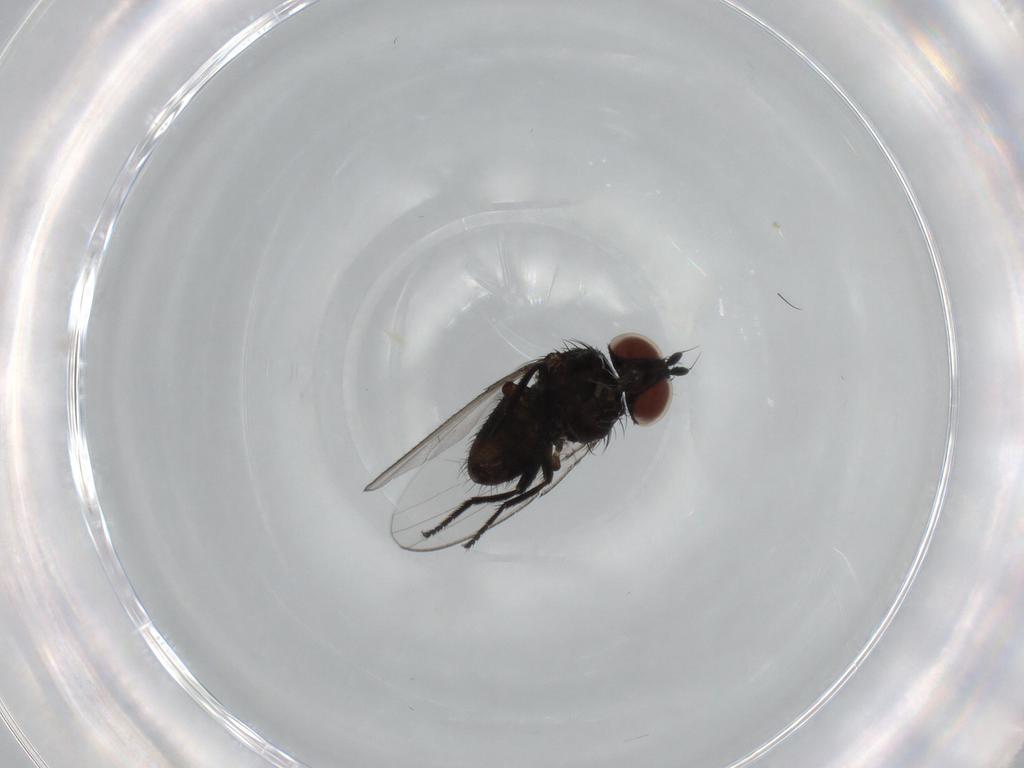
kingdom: Animalia
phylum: Arthropoda
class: Insecta
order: Diptera
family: Milichiidae
